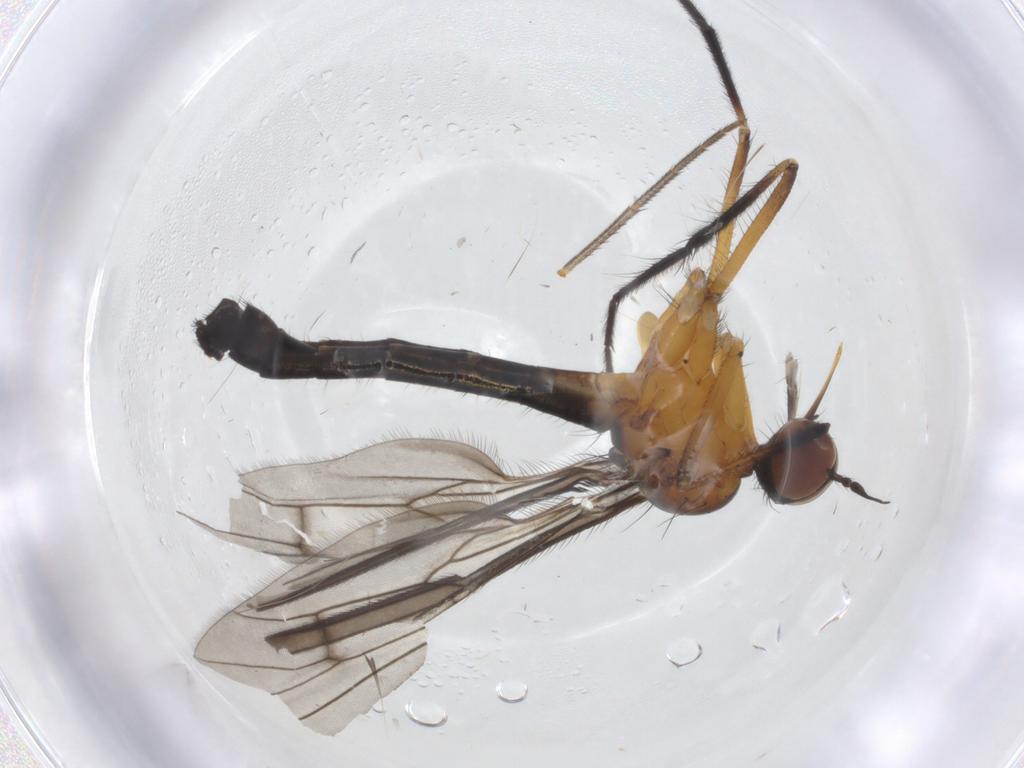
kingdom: Animalia
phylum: Arthropoda
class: Insecta
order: Diptera
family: Empididae
